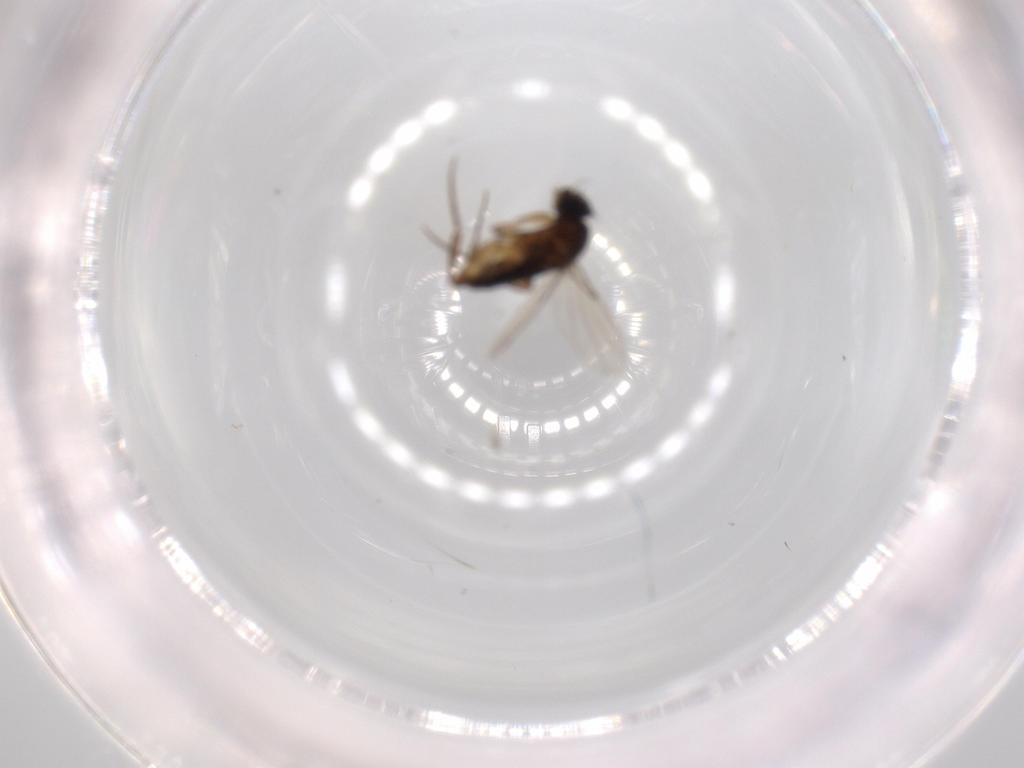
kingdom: Animalia
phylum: Arthropoda
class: Insecta
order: Diptera
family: Phoridae
